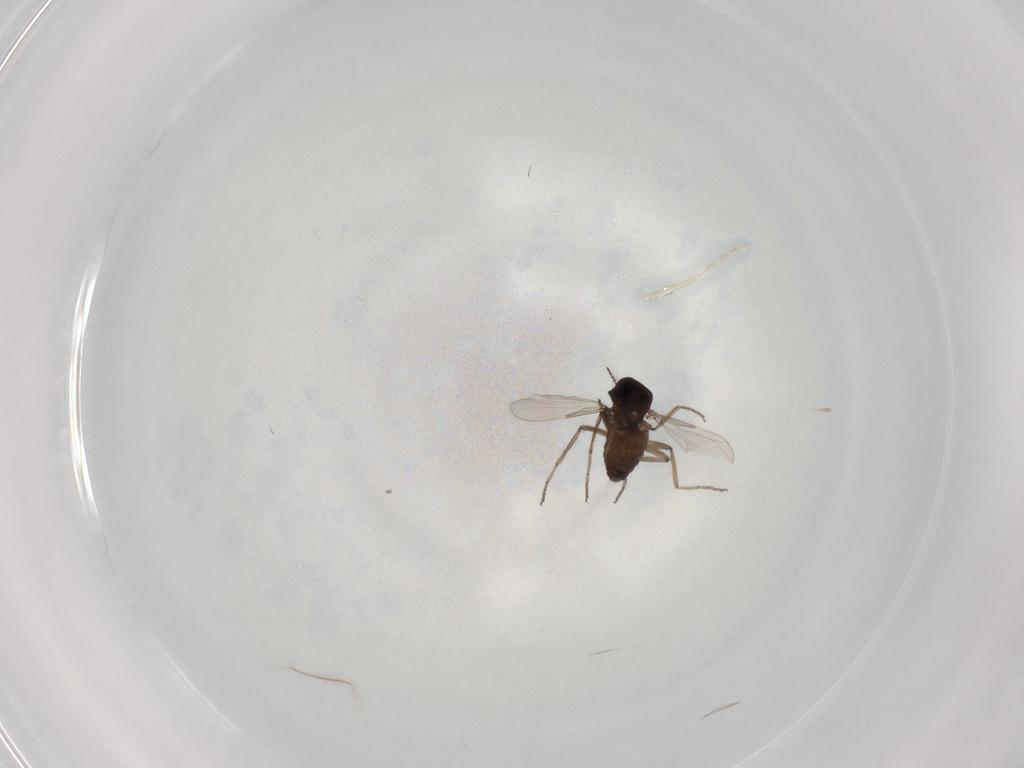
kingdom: Animalia
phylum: Arthropoda
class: Insecta
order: Diptera
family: Ceratopogonidae
